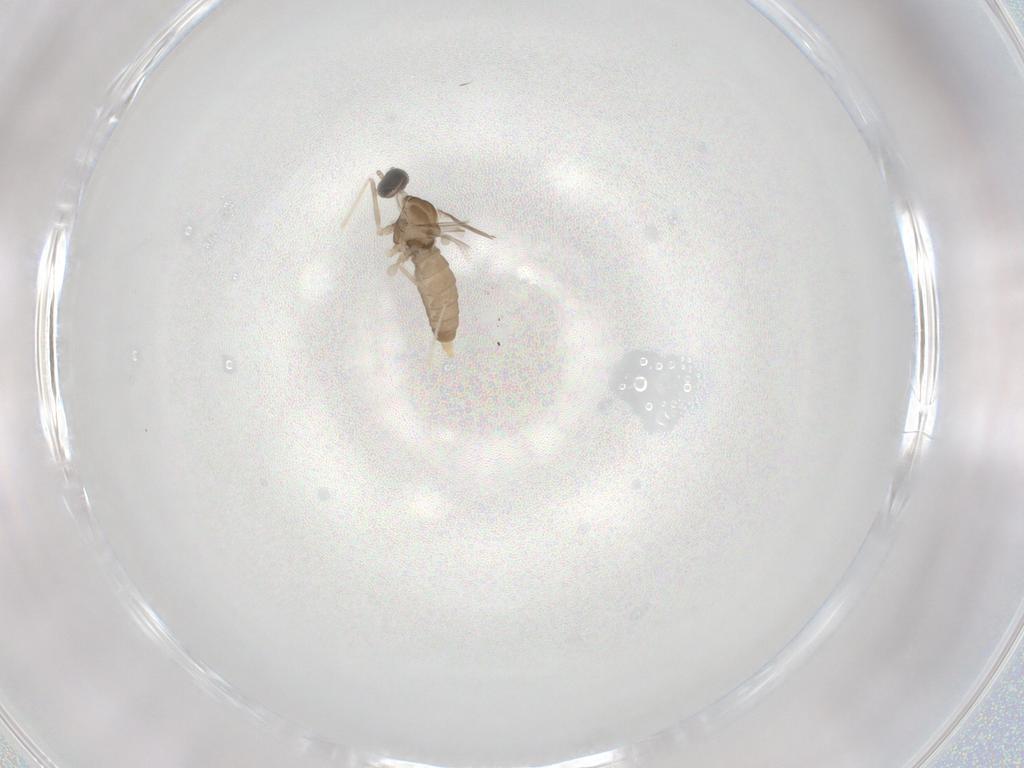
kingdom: Animalia
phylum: Arthropoda
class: Insecta
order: Diptera
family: Cecidomyiidae
